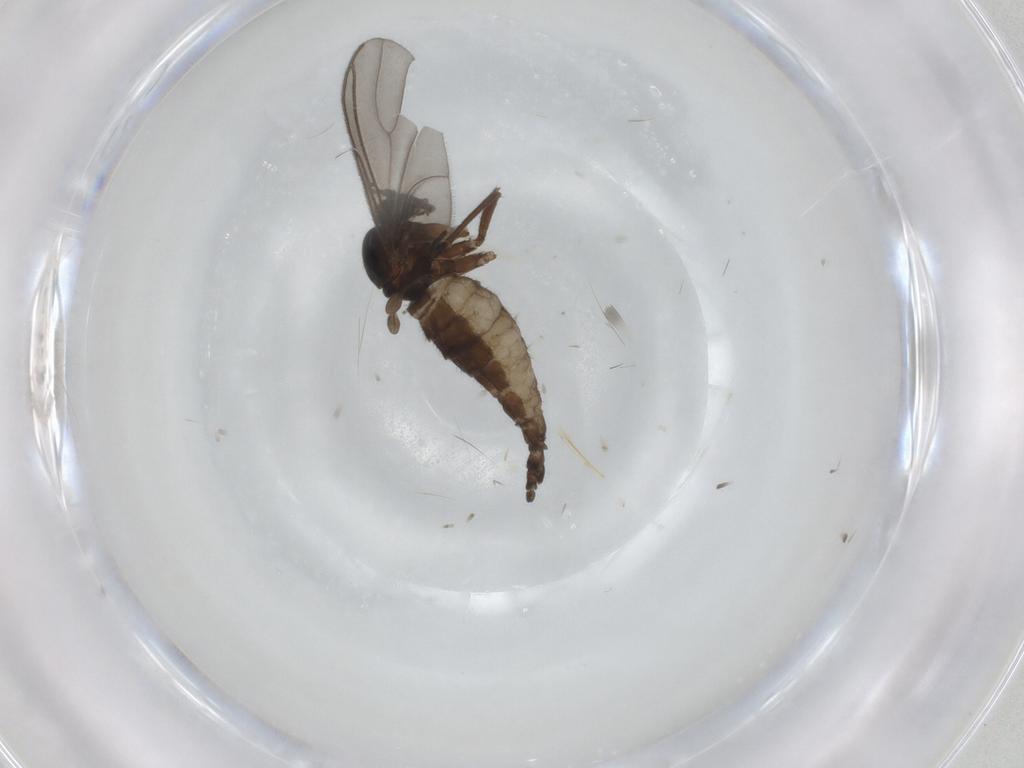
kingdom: Animalia
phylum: Arthropoda
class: Insecta
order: Diptera
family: Sciaridae
